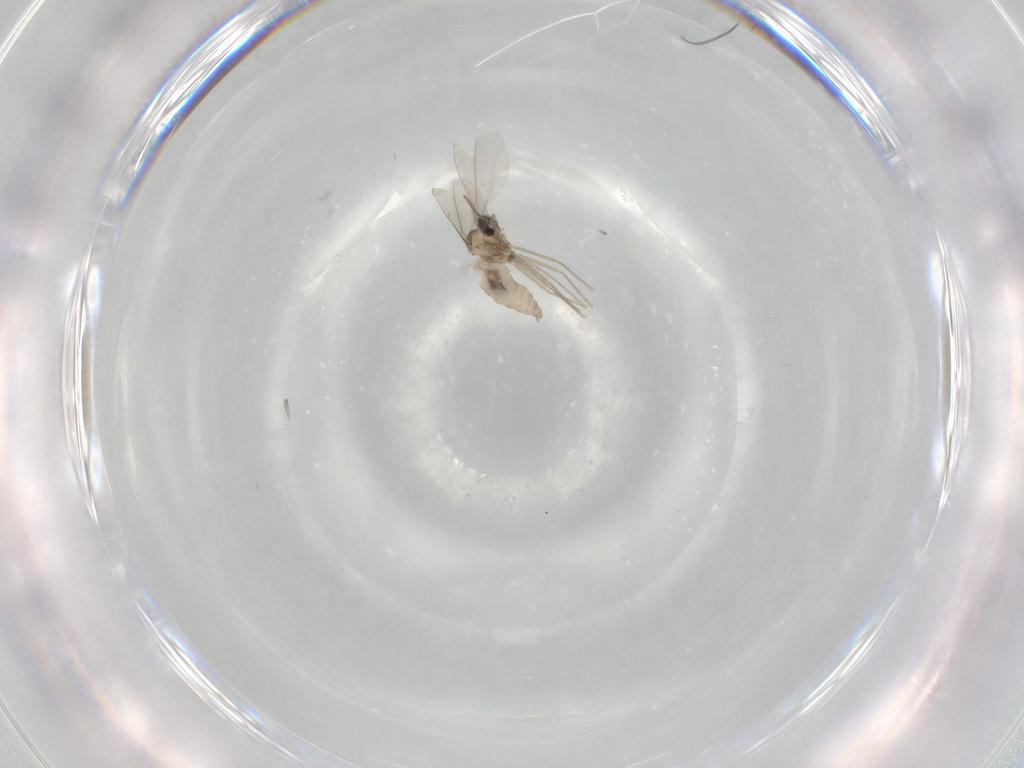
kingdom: Animalia
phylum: Arthropoda
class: Insecta
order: Diptera
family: Cecidomyiidae
